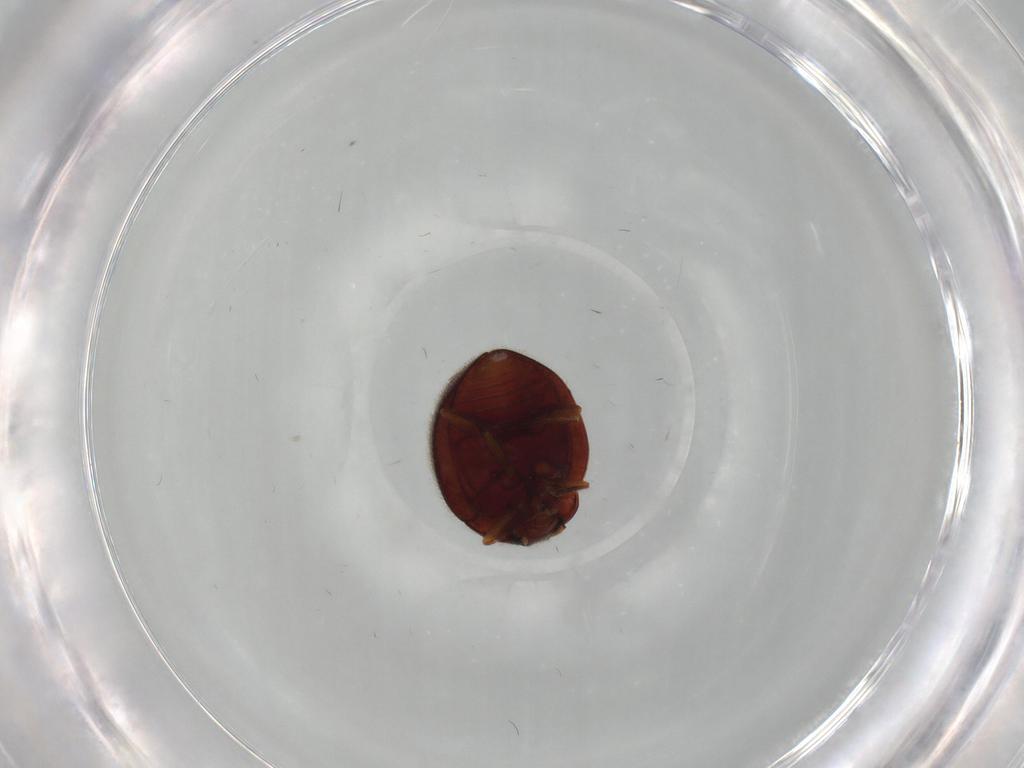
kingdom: Animalia
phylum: Arthropoda
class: Insecta
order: Coleoptera
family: Anamorphidae
